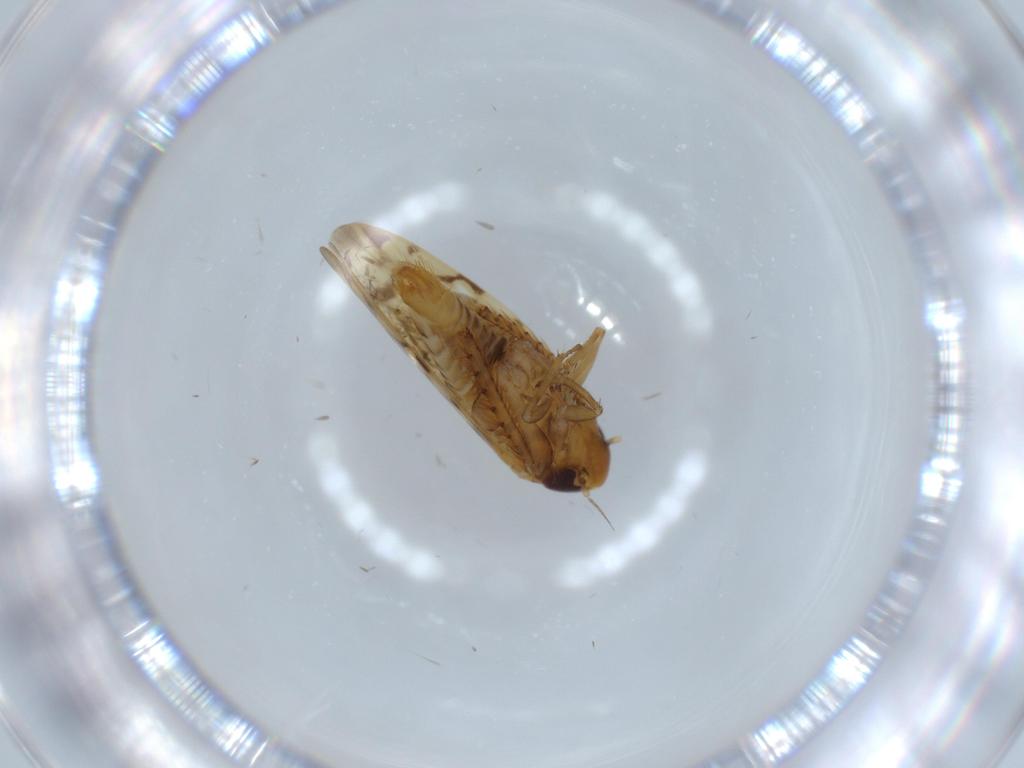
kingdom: Animalia
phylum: Arthropoda
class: Insecta
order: Hemiptera
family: Cicadellidae
